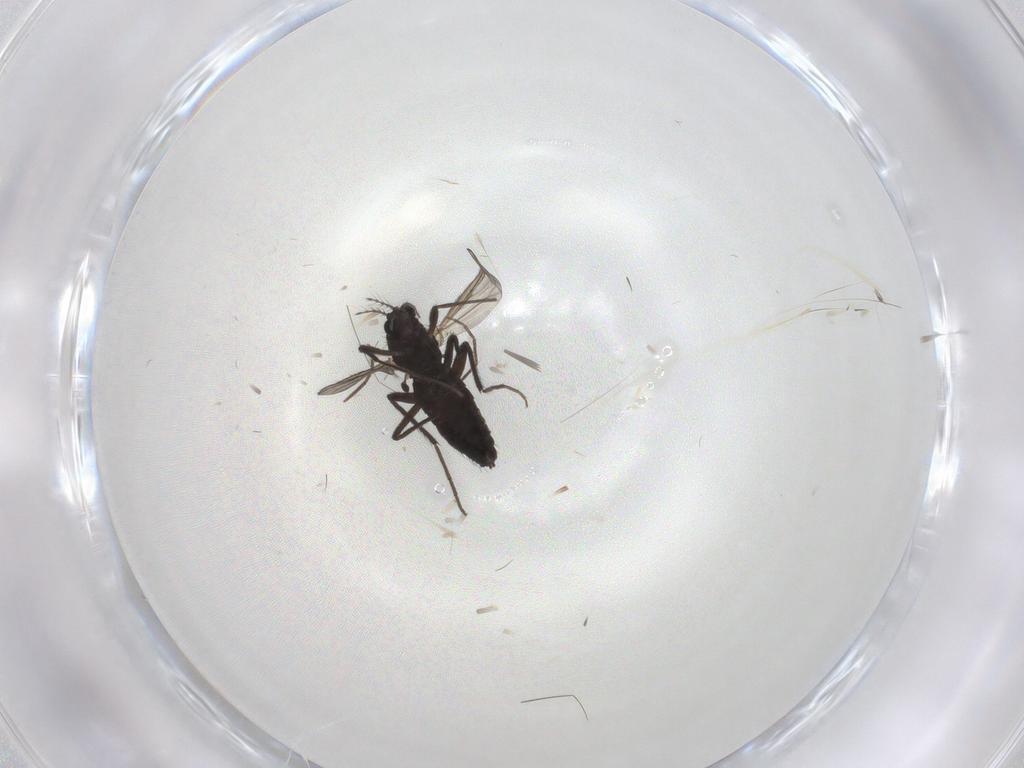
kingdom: Animalia
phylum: Arthropoda
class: Insecta
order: Diptera
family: Chironomidae
